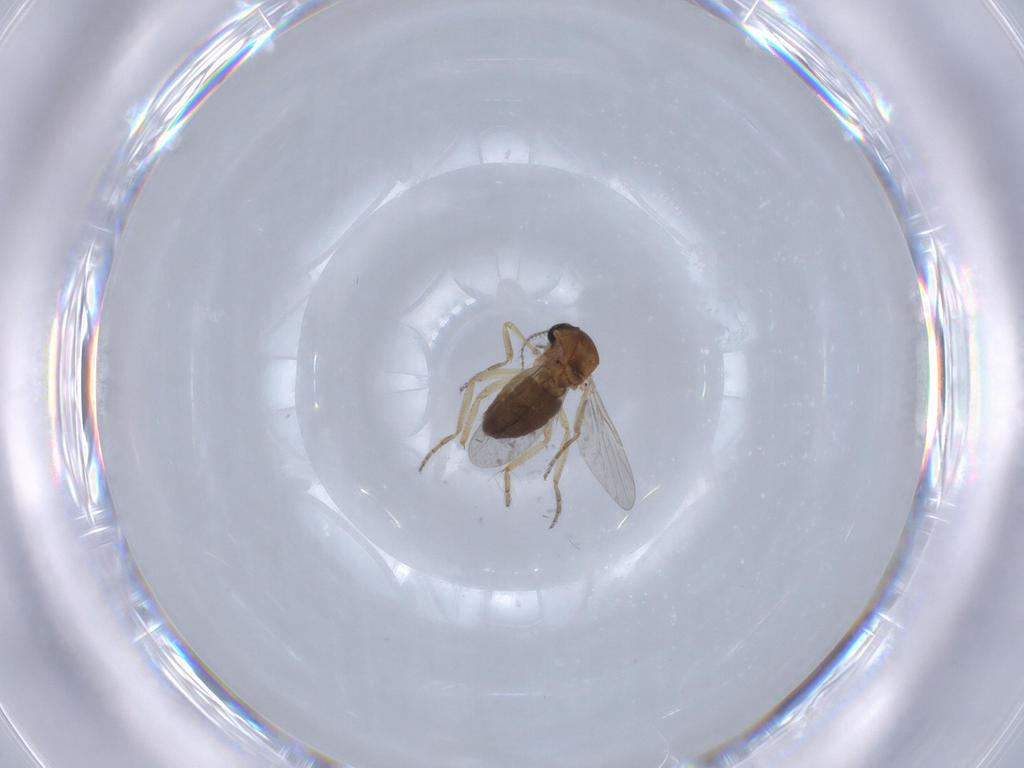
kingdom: Animalia
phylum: Arthropoda
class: Insecta
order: Diptera
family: Ceratopogonidae
